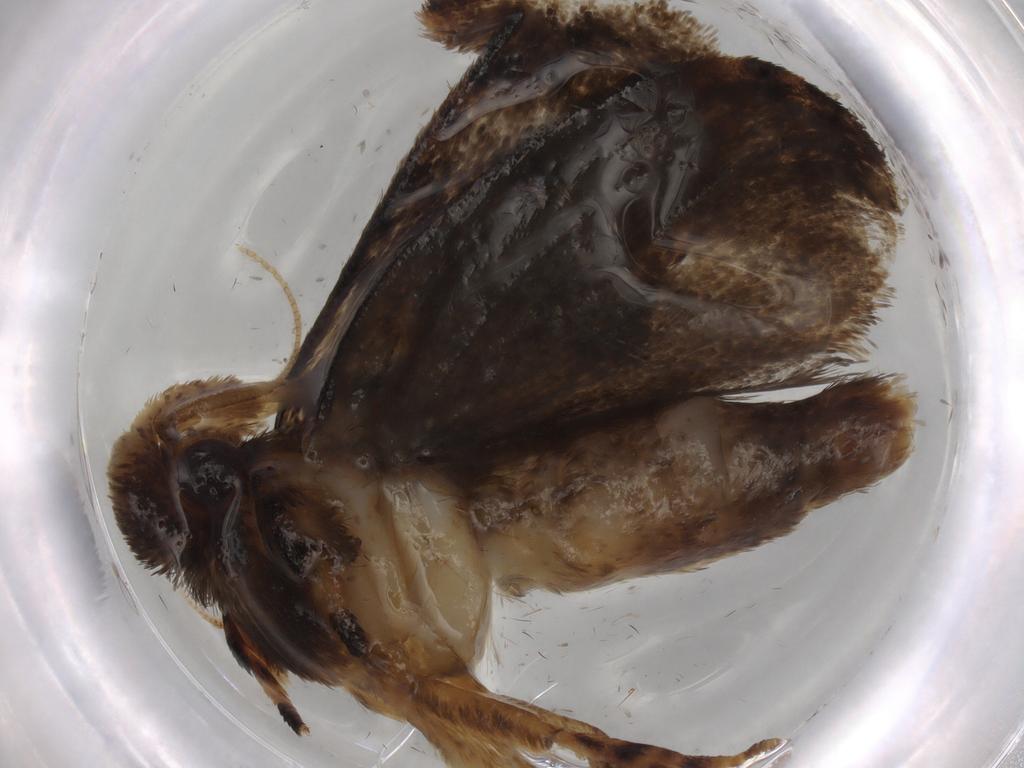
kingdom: Animalia
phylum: Arthropoda
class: Insecta
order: Lepidoptera
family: Tineidae
